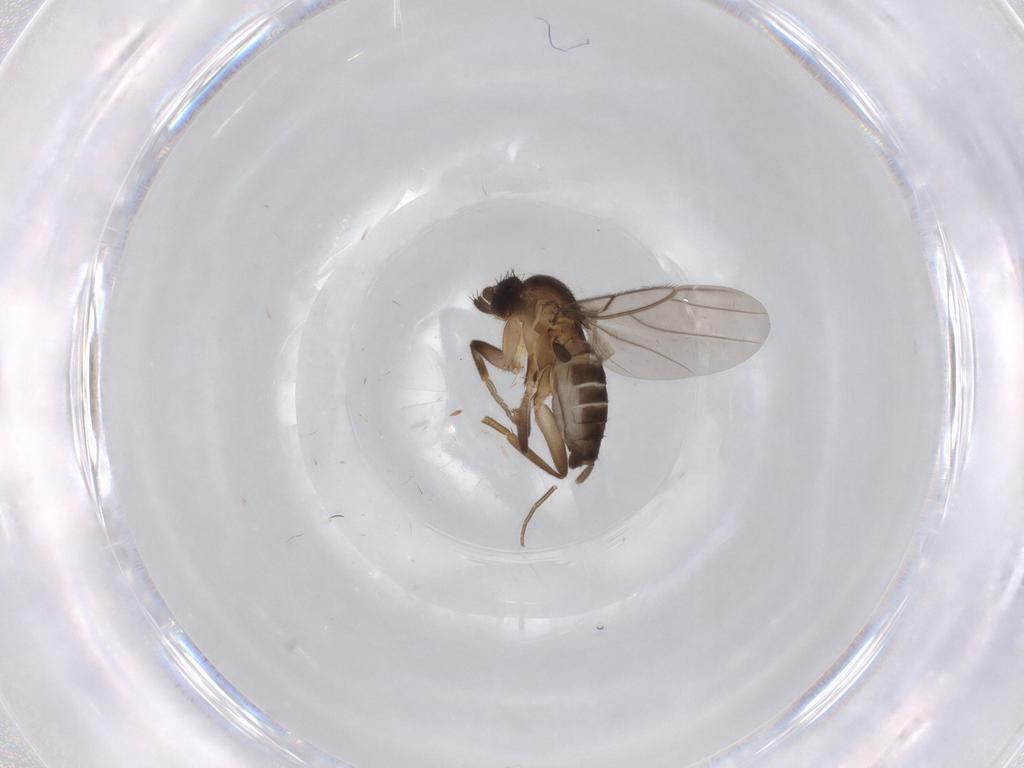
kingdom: Animalia
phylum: Arthropoda
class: Insecta
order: Diptera
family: Phoridae
